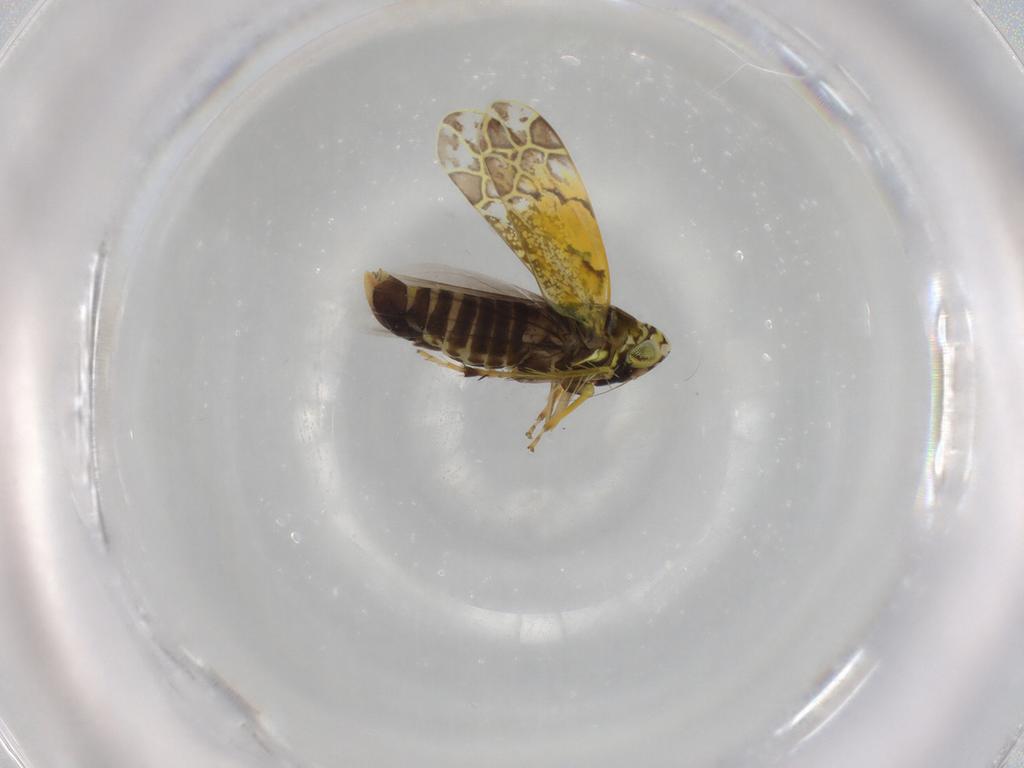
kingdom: Animalia
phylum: Arthropoda
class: Insecta
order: Hemiptera
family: Cicadellidae
